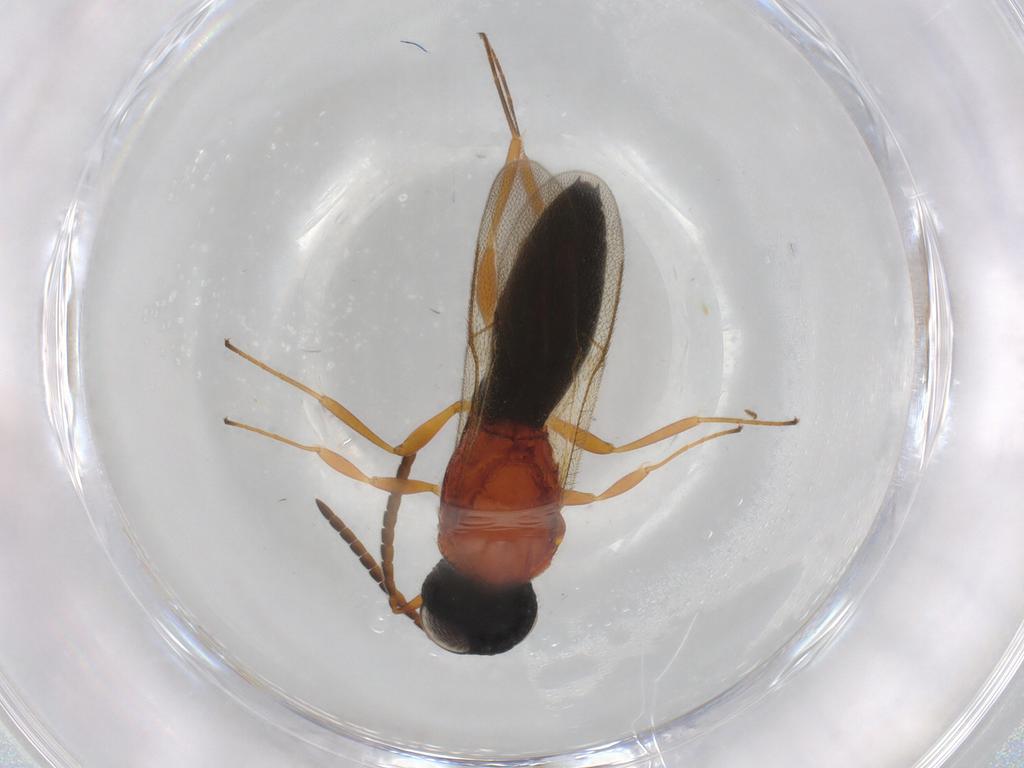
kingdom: Animalia
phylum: Arthropoda
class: Insecta
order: Hymenoptera
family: Scelionidae
